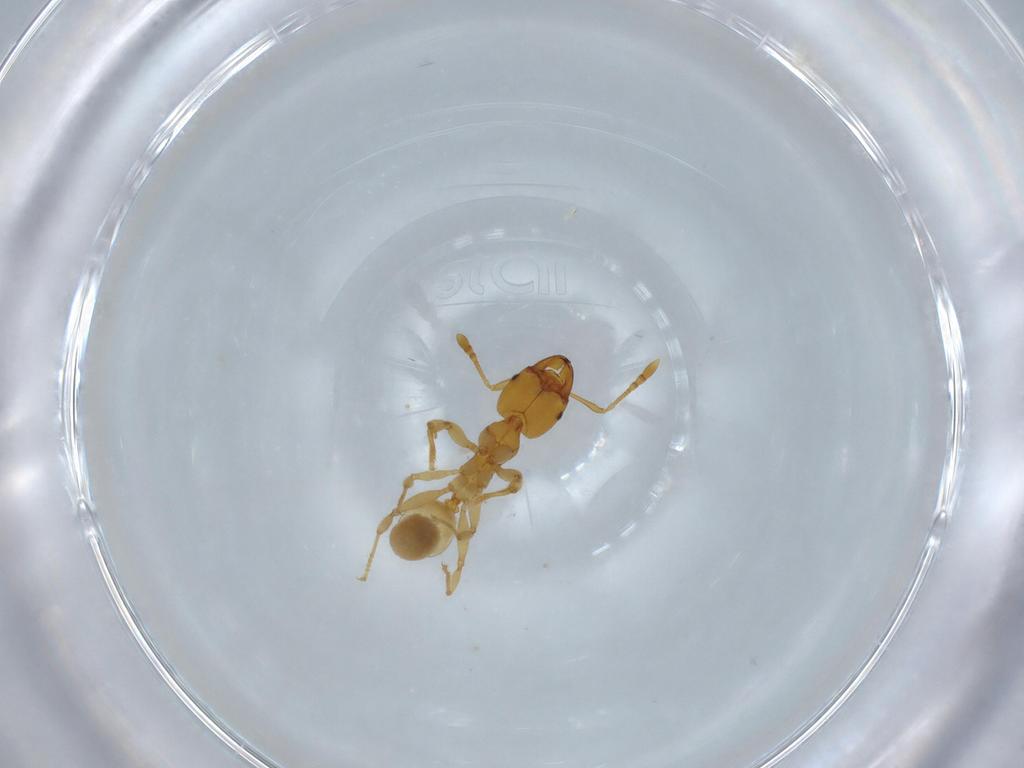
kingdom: Animalia
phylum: Arthropoda
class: Insecta
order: Hymenoptera
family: Formicidae
